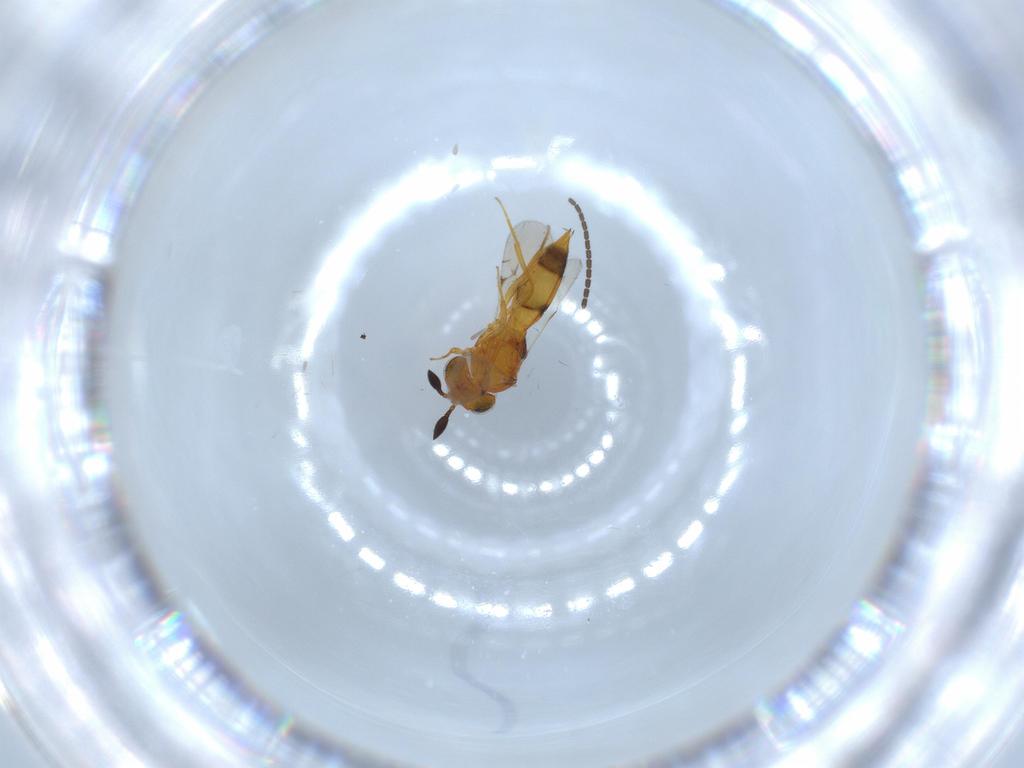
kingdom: Animalia
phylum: Arthropoda
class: Insecta
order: Hymenoptera
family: Scelionidae
